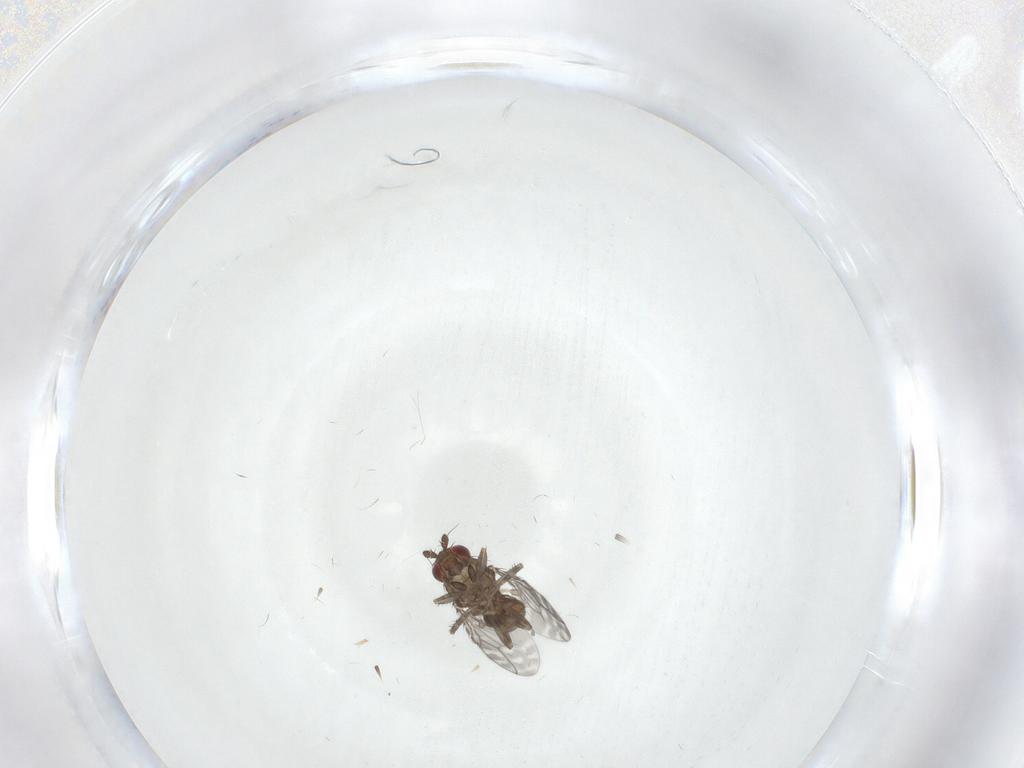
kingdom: Animalia
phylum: Arthropoda
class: Insecta
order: Diptera
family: Sphaeroceridae
